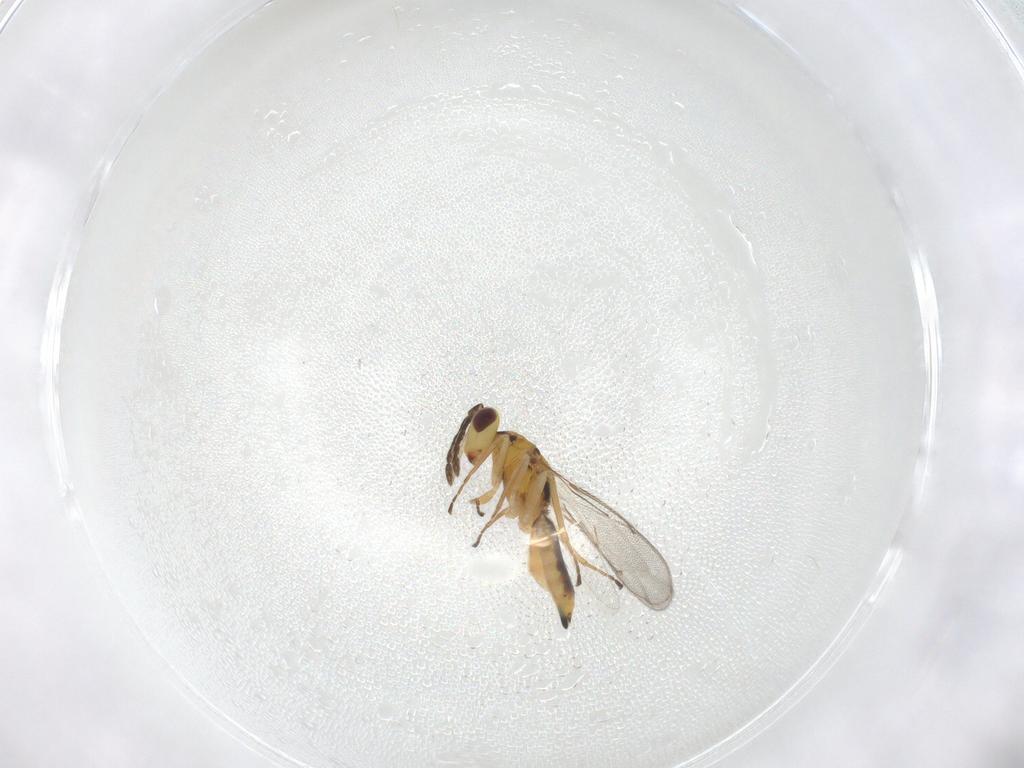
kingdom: Animalia
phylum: Arthropoda
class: Insecta
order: Hymenoptera
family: Eulophidae
